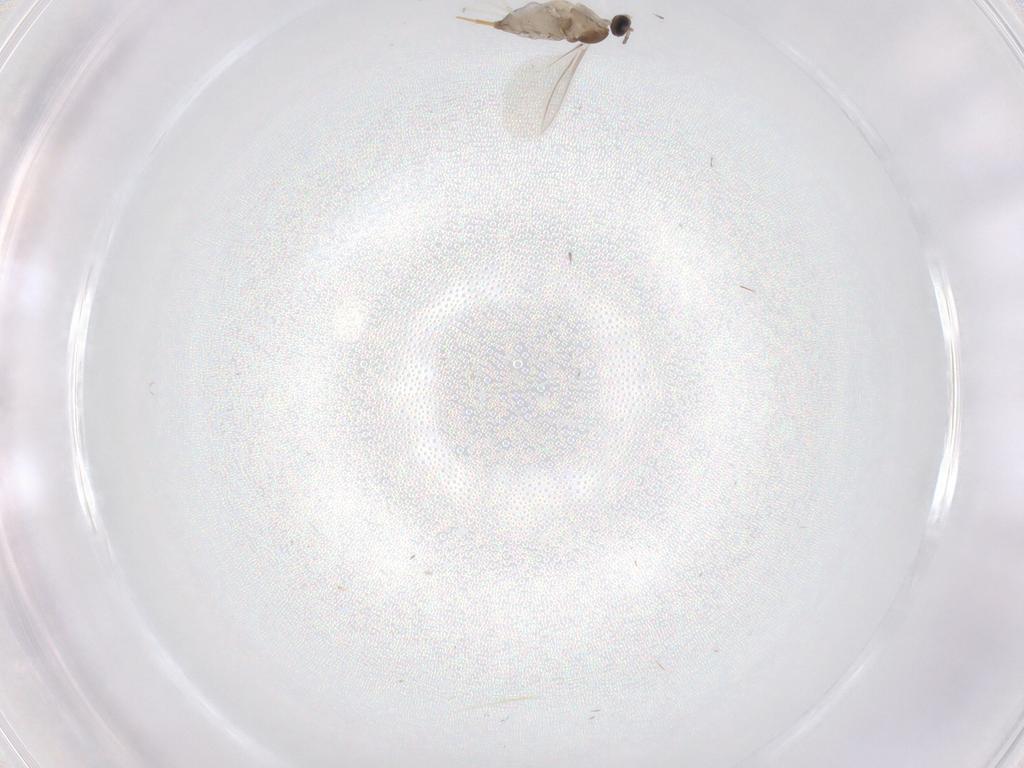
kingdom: Animalia
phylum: Arthropoda
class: Insecta
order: Diptera
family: Cecidomyiidae
